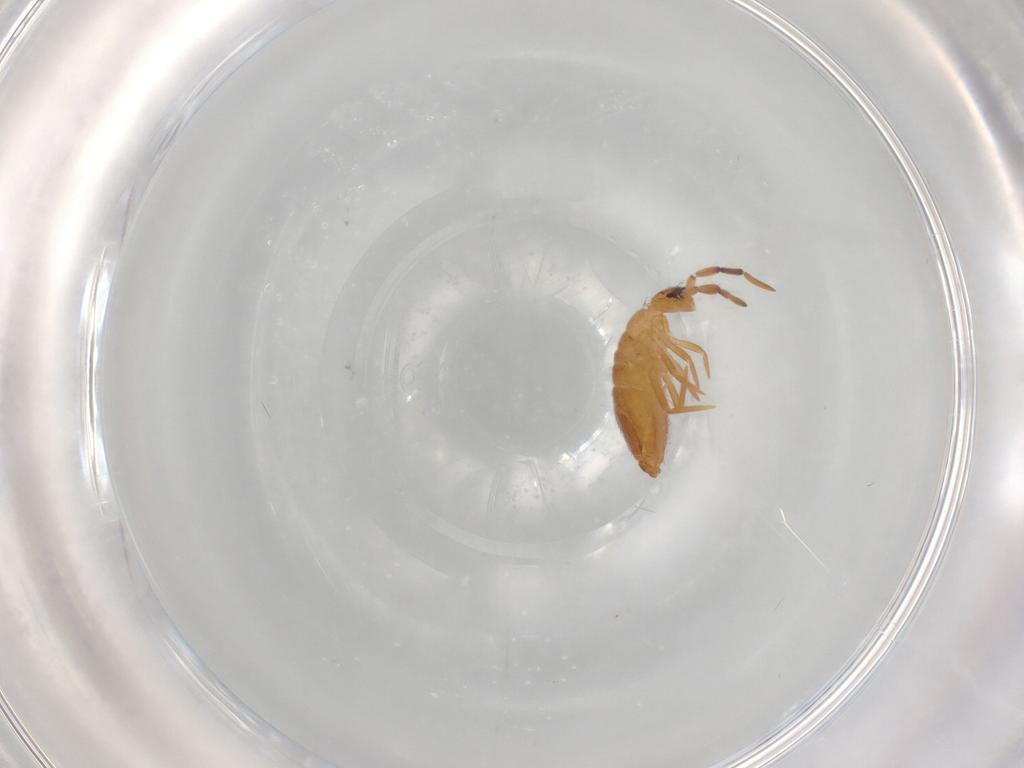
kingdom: Animalia
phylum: Arthropoda
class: Collembola
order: Entomobryomorpha
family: Entomobryidae
